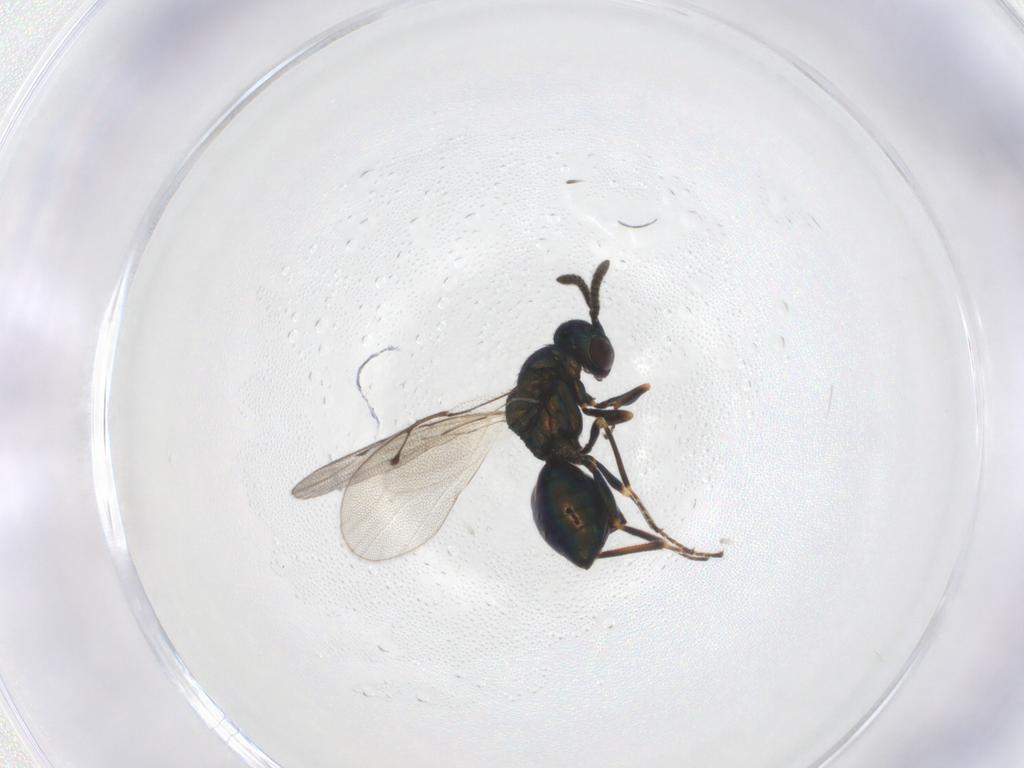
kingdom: Animalia
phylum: Arthropoda
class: Insecta
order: Hymenoptera
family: Pteromalidae
